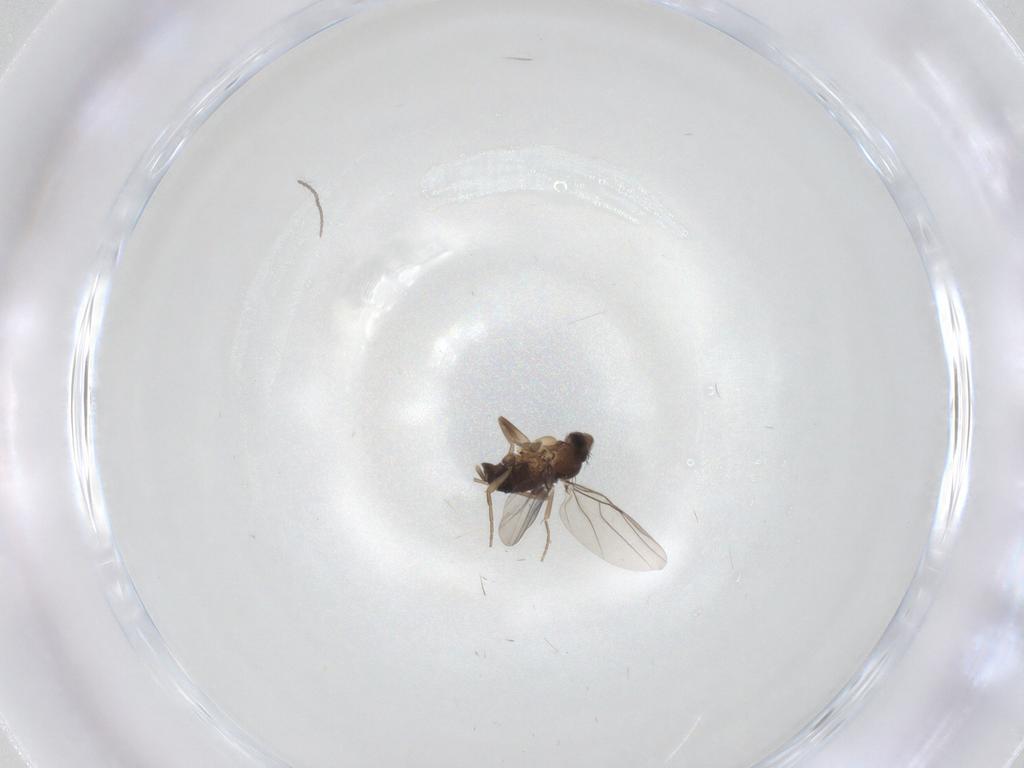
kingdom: Animalia
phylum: Arthropoda
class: Insecta
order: Diptera
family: Phoridae
